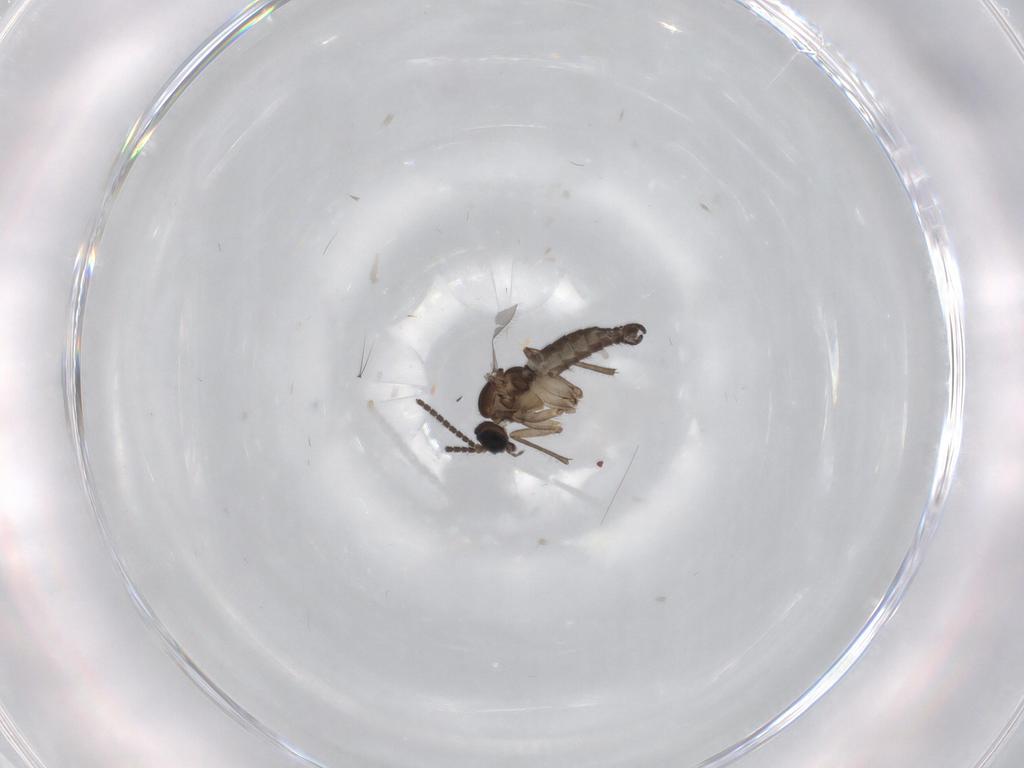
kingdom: Animalia
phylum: Arthropoda
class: Insecta
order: Diptera
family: Sciaridae
